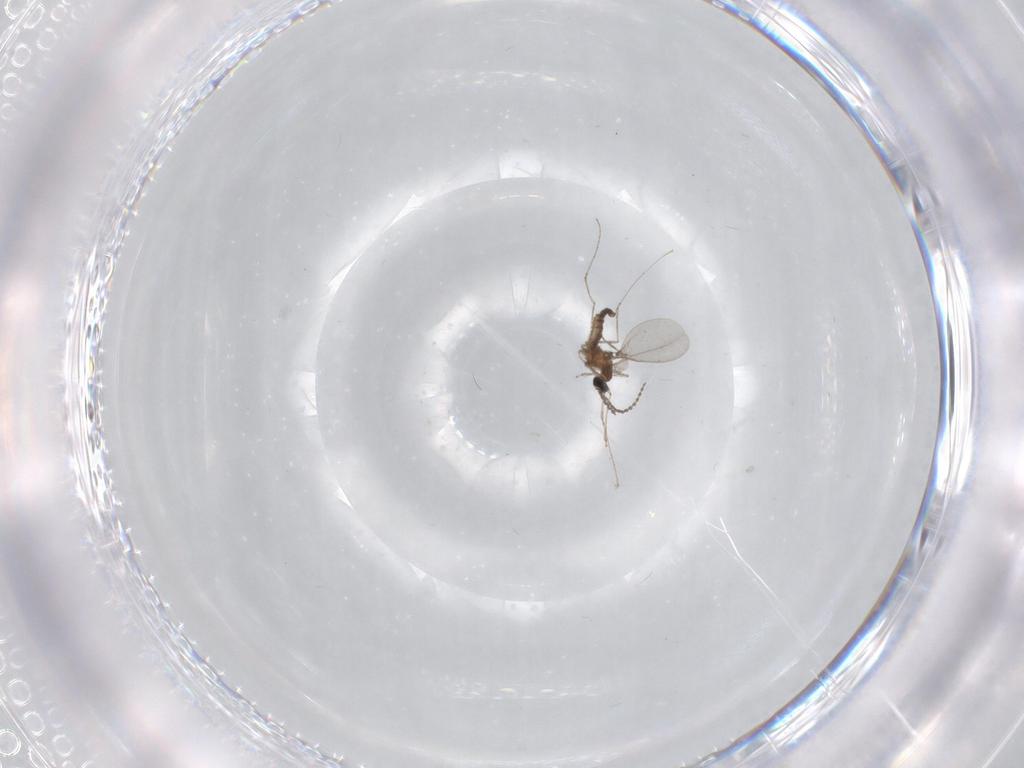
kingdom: Animalia
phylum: Arthropoda
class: Insecta
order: Diptera
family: Cecidomyiidae
